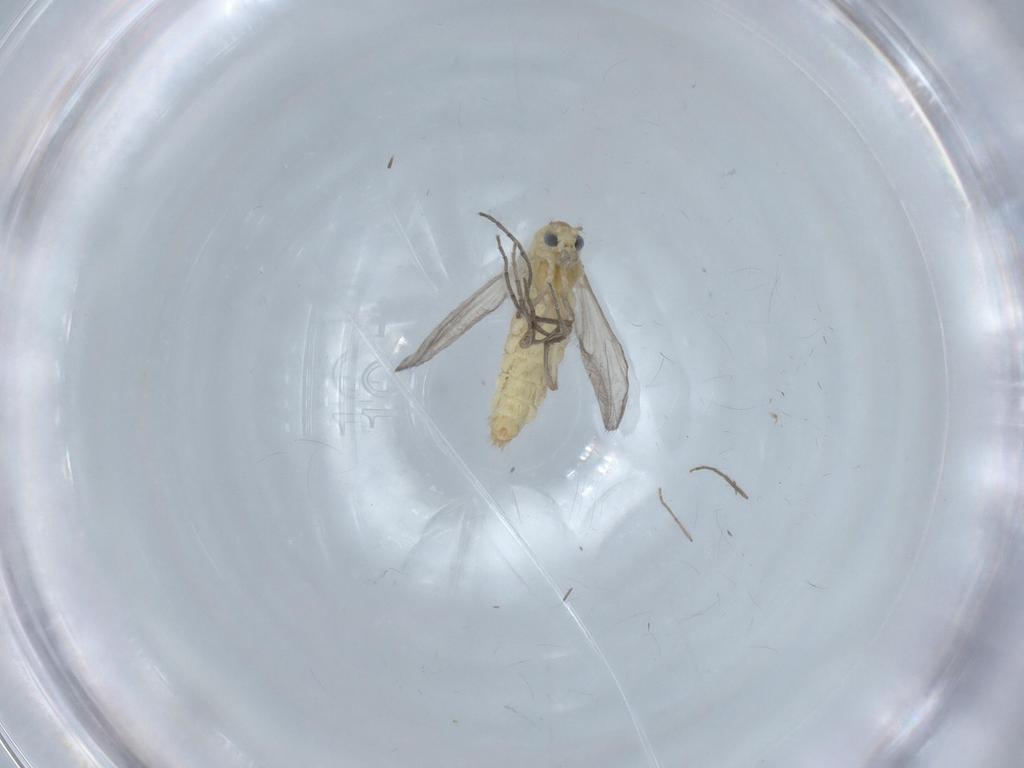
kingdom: Animalia
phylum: Arthropoda
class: Insecta
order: Diptera
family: Chironomidae
